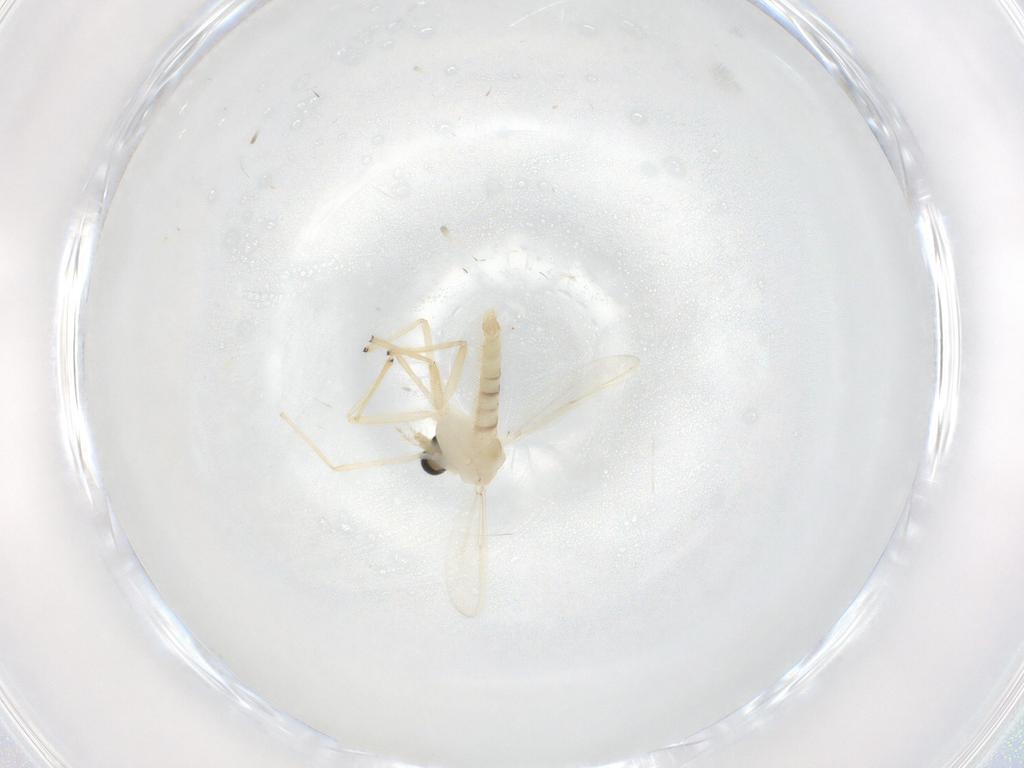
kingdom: Animalia
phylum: Arthropoda
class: Insecta
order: Diptera
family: Chironomidae
